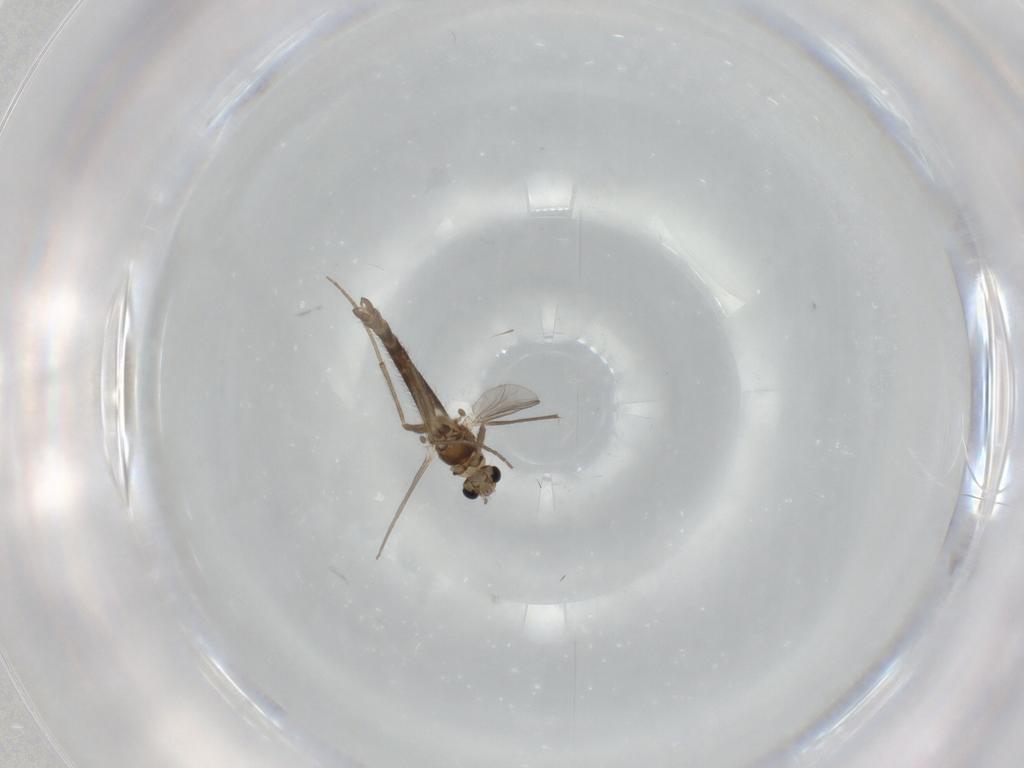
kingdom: Animalia
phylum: Arthropoda
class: Insecta
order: Diptera
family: Chironomidae
